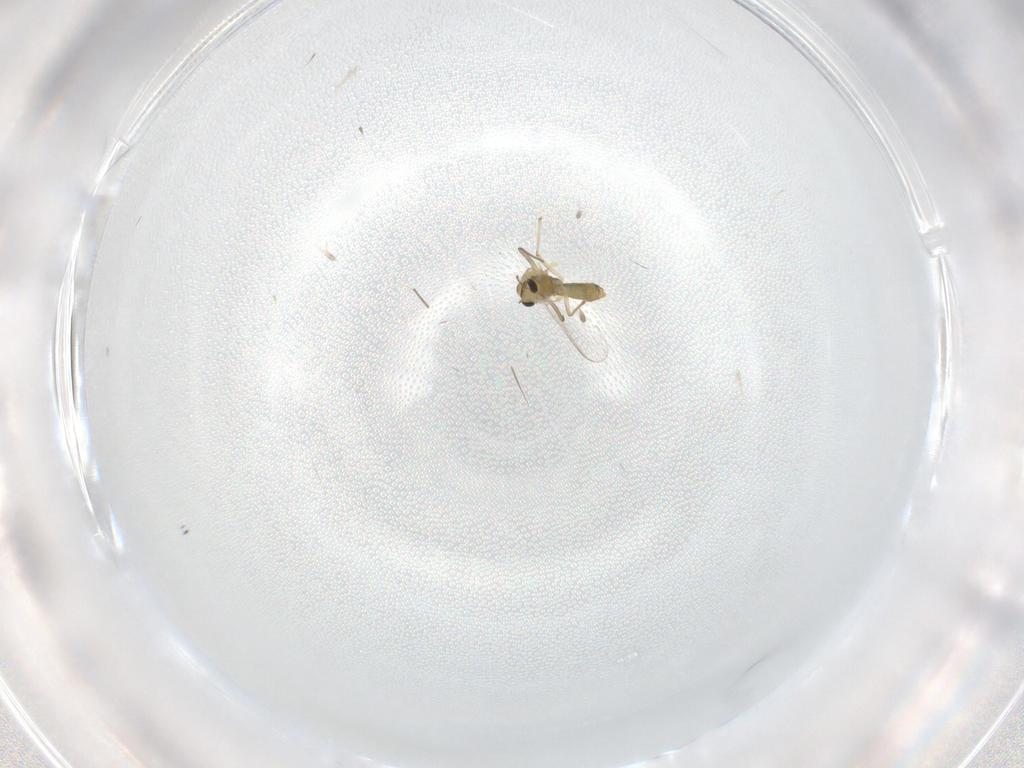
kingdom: Animalia
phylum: Arthropoda
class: Insecta
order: Diptera
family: Chironomidae
